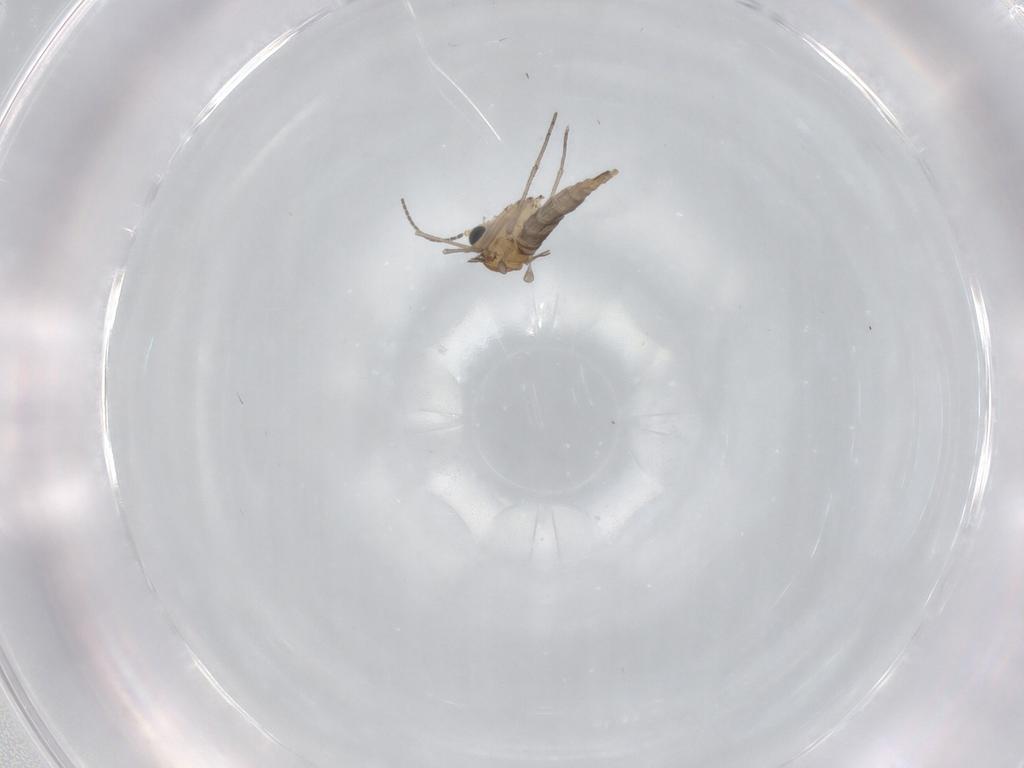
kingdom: Animalia
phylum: Arthropoda
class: Insecta
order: Diptera
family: Sciaridae
